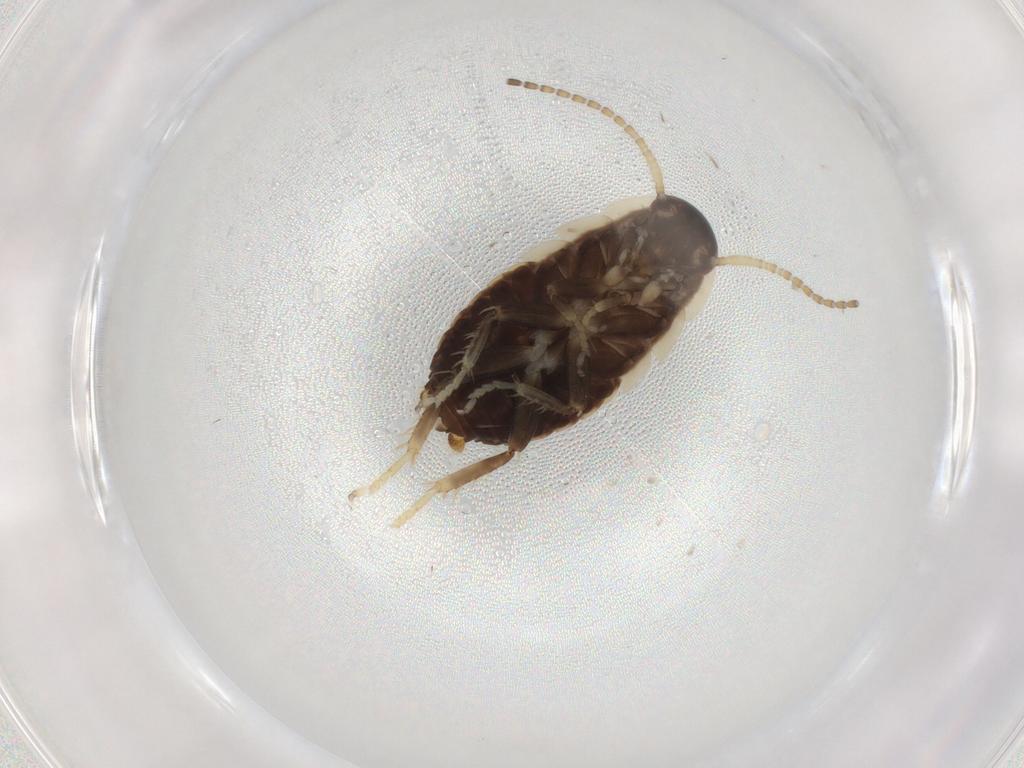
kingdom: Animalia
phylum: Arthropoda
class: Insecta
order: Blattodea
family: Ectobiidae
